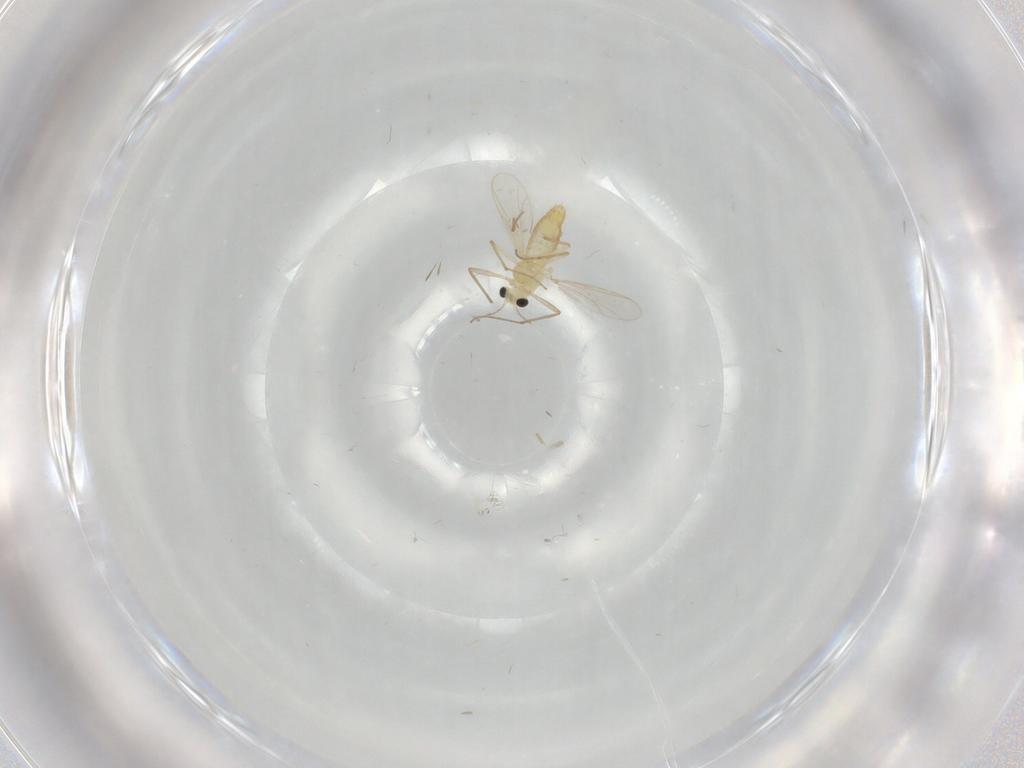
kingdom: Animalia
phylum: Arthropoda
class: Insecta
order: Diptera
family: Chironomidae
